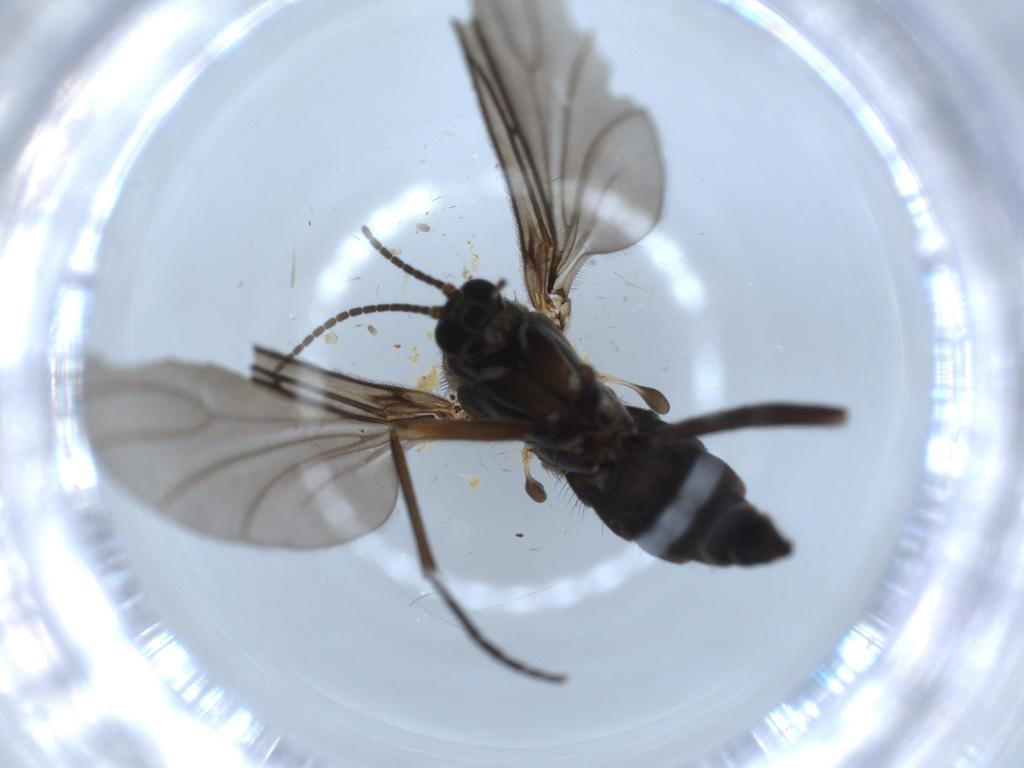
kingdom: Animalia
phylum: Arthropoda
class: Insecta
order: Diptera
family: Sciaridae
